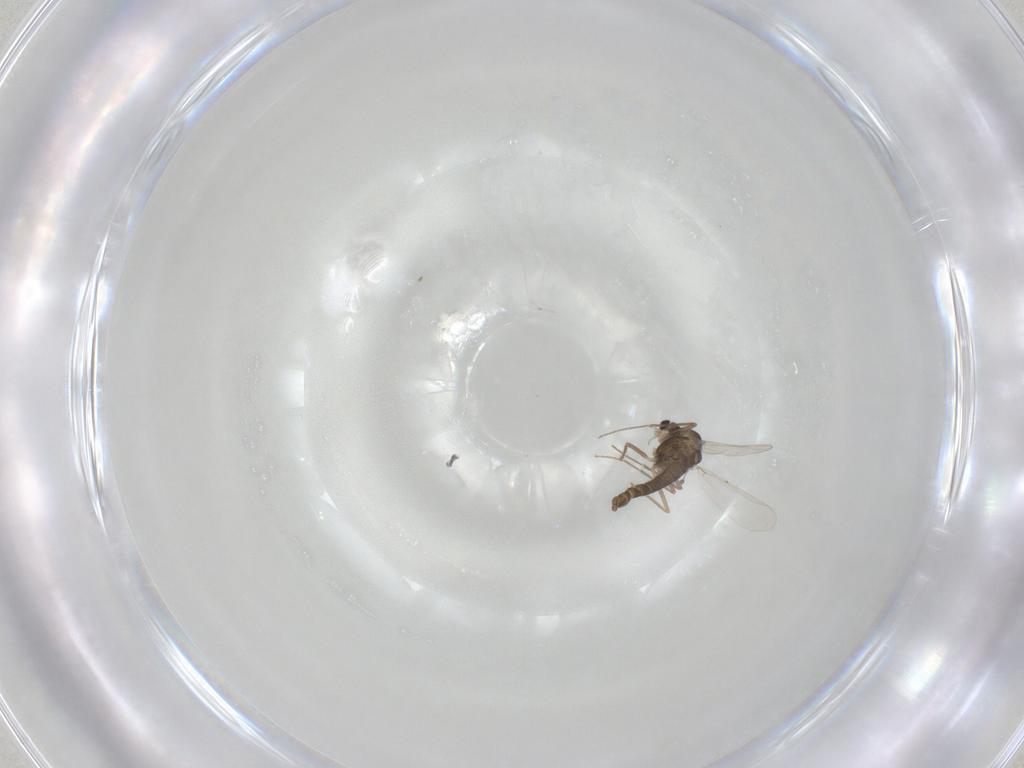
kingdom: Animalia
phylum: Arthropoda
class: Insecta
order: Diptera
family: Chironomidae
